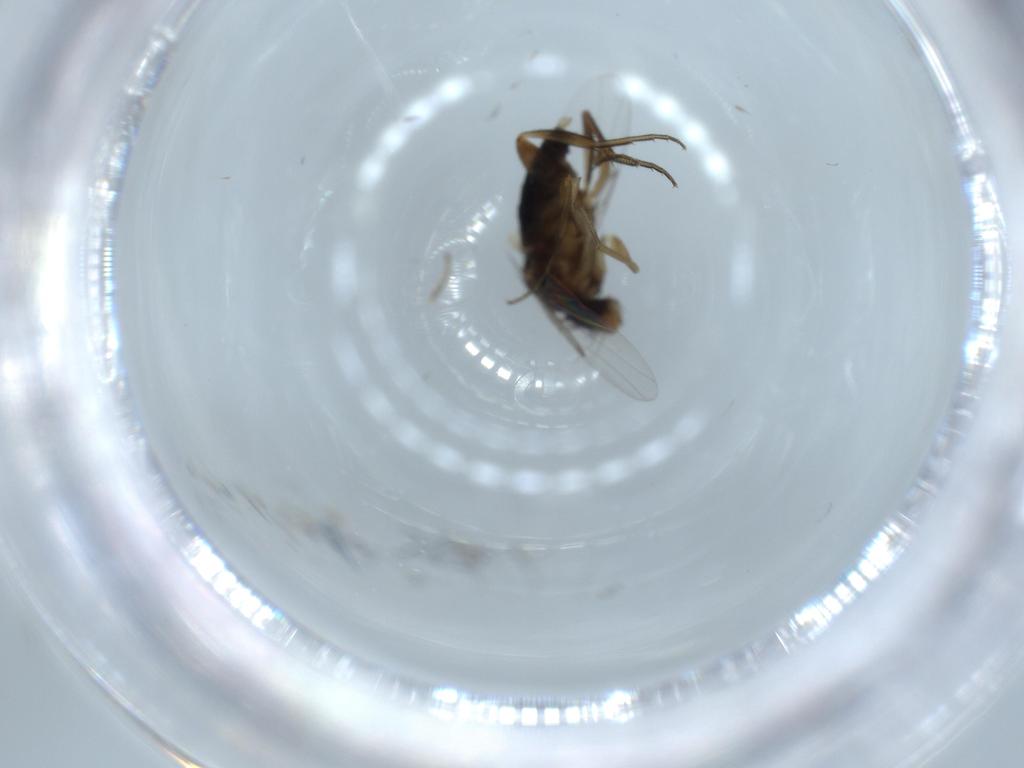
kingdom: Animalia
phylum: Arthropoda
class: Insecta
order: Diptera
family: Phoridae
